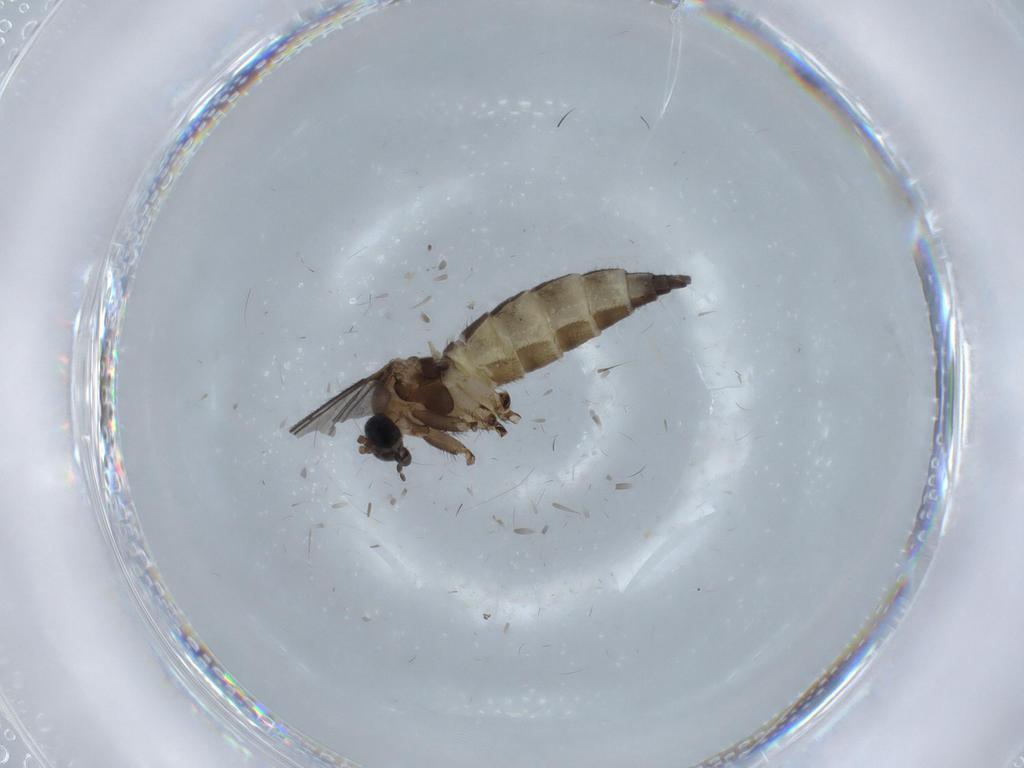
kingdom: Animalia
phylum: Arthropoda
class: Insecta
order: Diptera
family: Sciaridae
